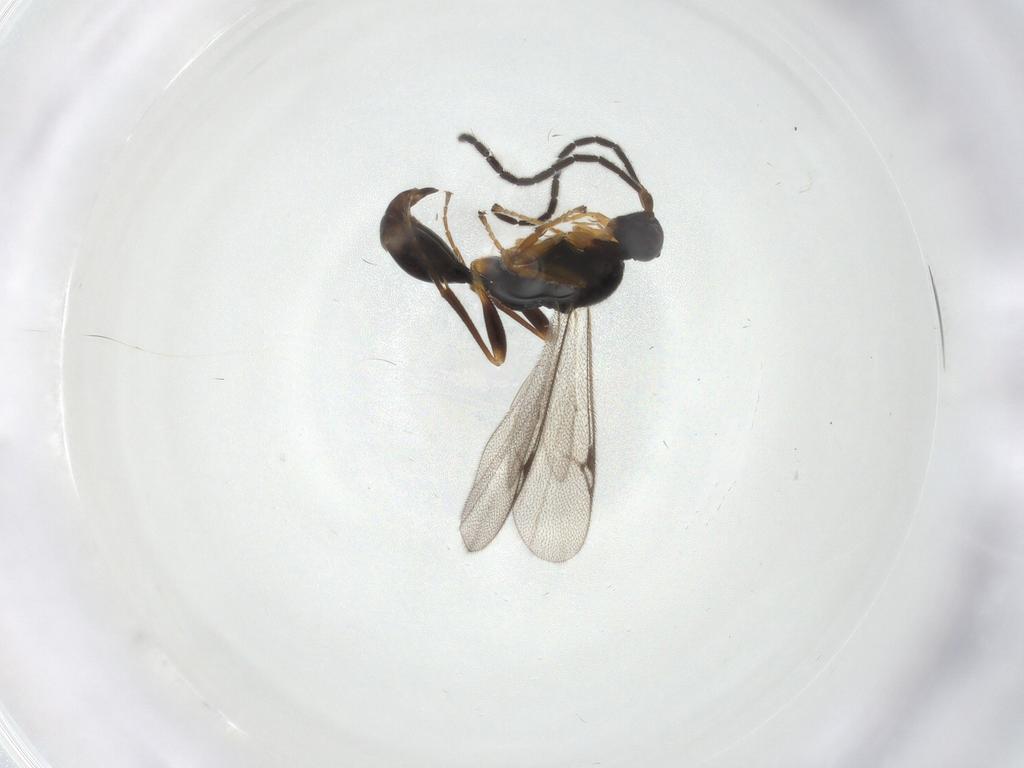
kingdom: Animalia
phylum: Arthropoda
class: Insecta
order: Hymenoptera
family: Proctotrupidae
